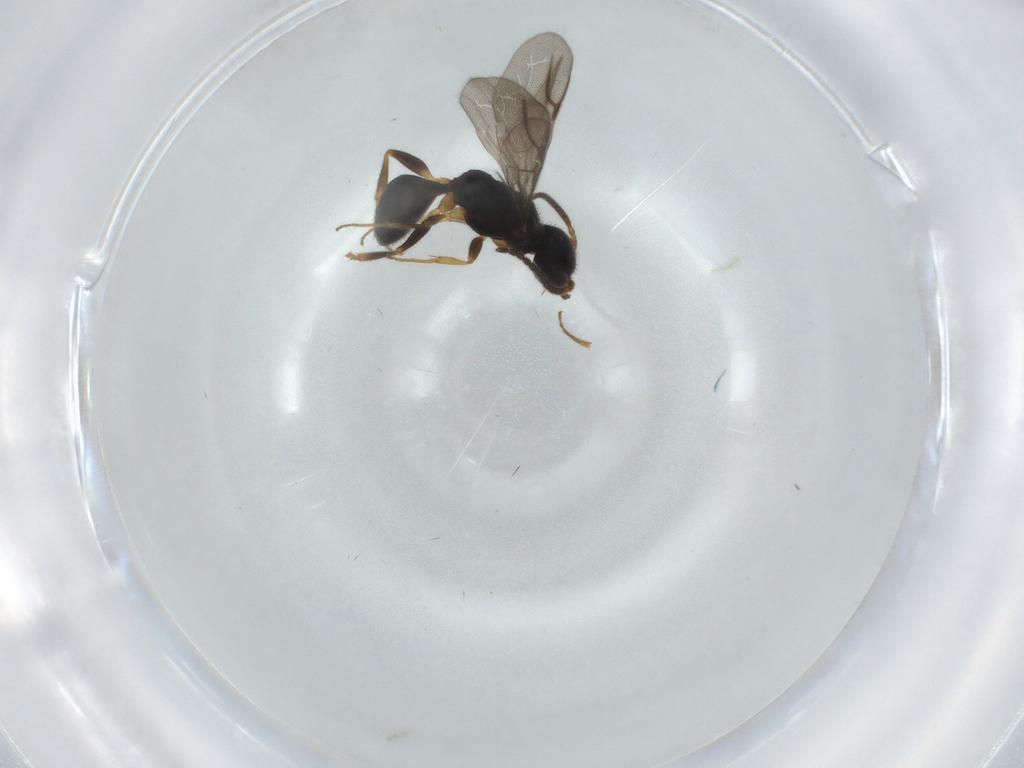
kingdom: Animalia
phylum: Arthropoda
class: Insecta
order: Hymenoptera
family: Bethylidae
